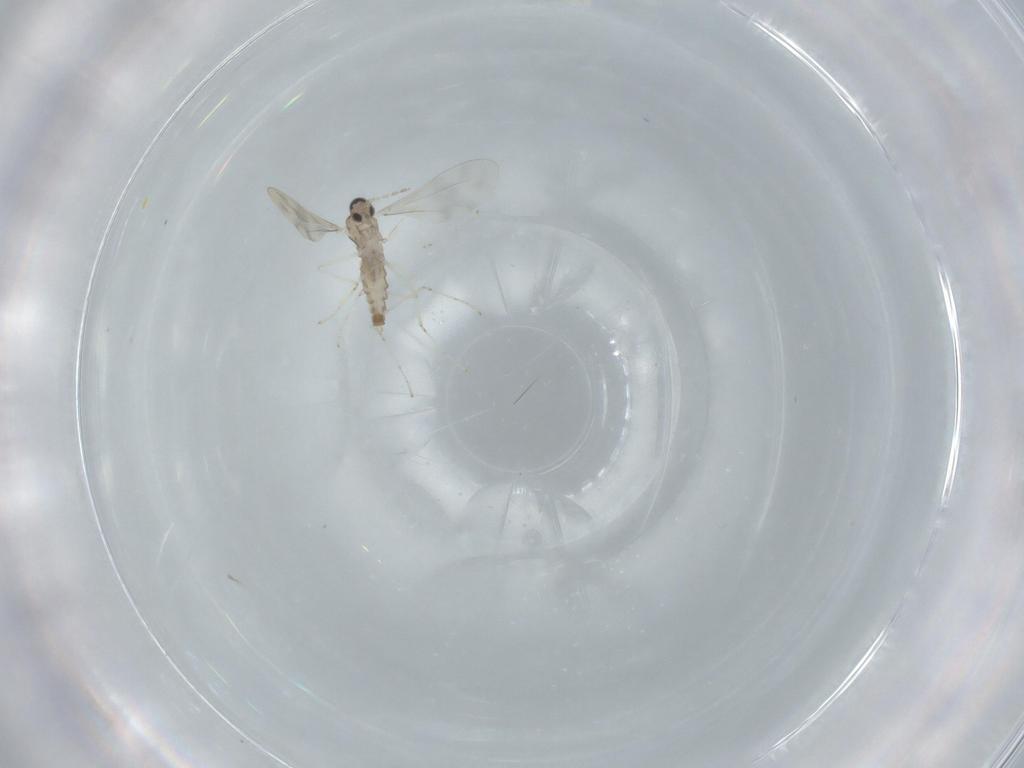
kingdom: Animalia
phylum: Arthropoda
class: Insecta
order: Diptera
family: Cecidomyiidae
